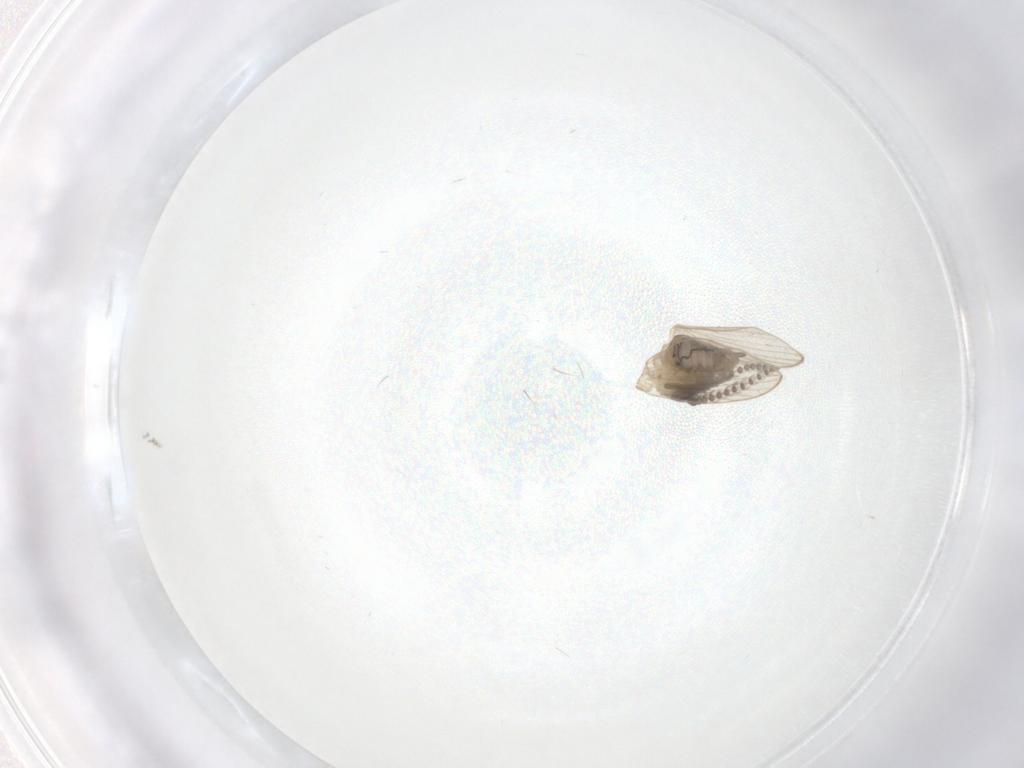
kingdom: Animalia
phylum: Arthropoda
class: Insecta
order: Diptera
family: Psychodidae
